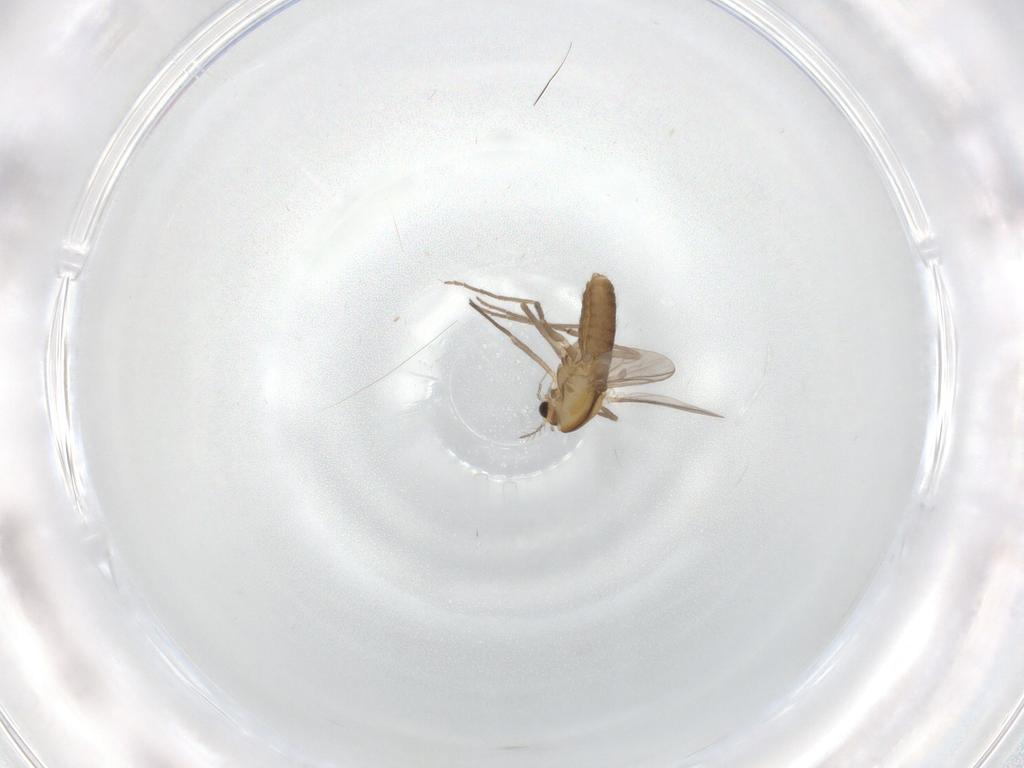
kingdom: Animalia
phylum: Arthropoda
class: Insecta
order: Diptera
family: Chironomidae
